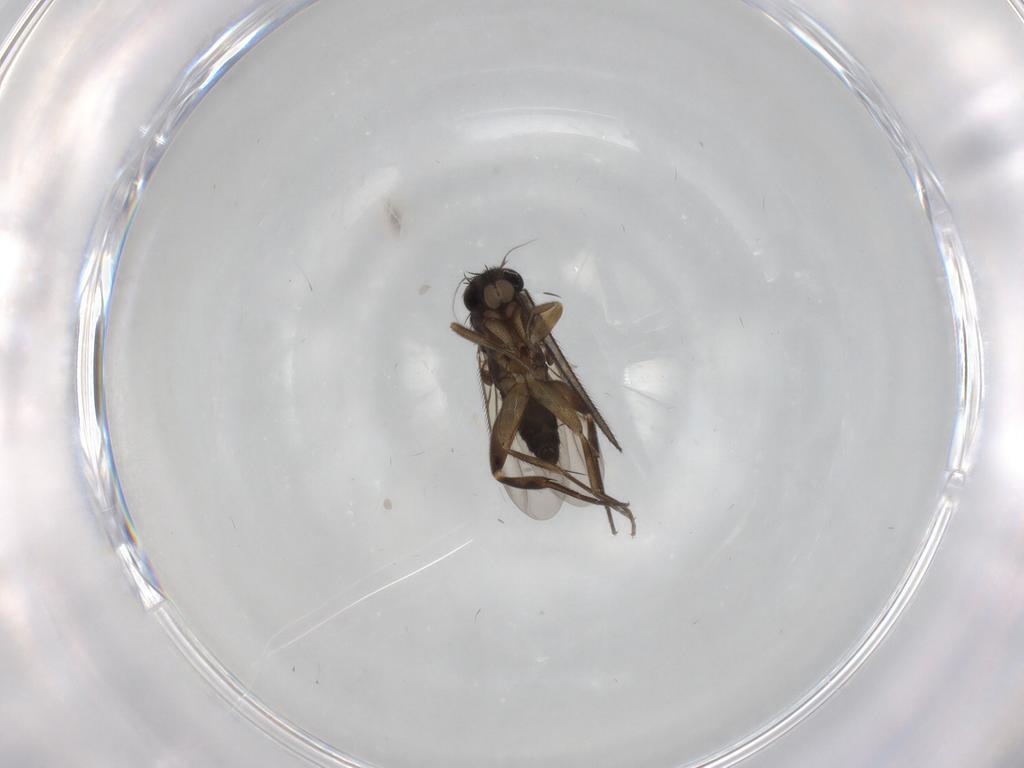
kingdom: Animalia
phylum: Arthropoda
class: Insecta
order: Diptera
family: Phoridae
